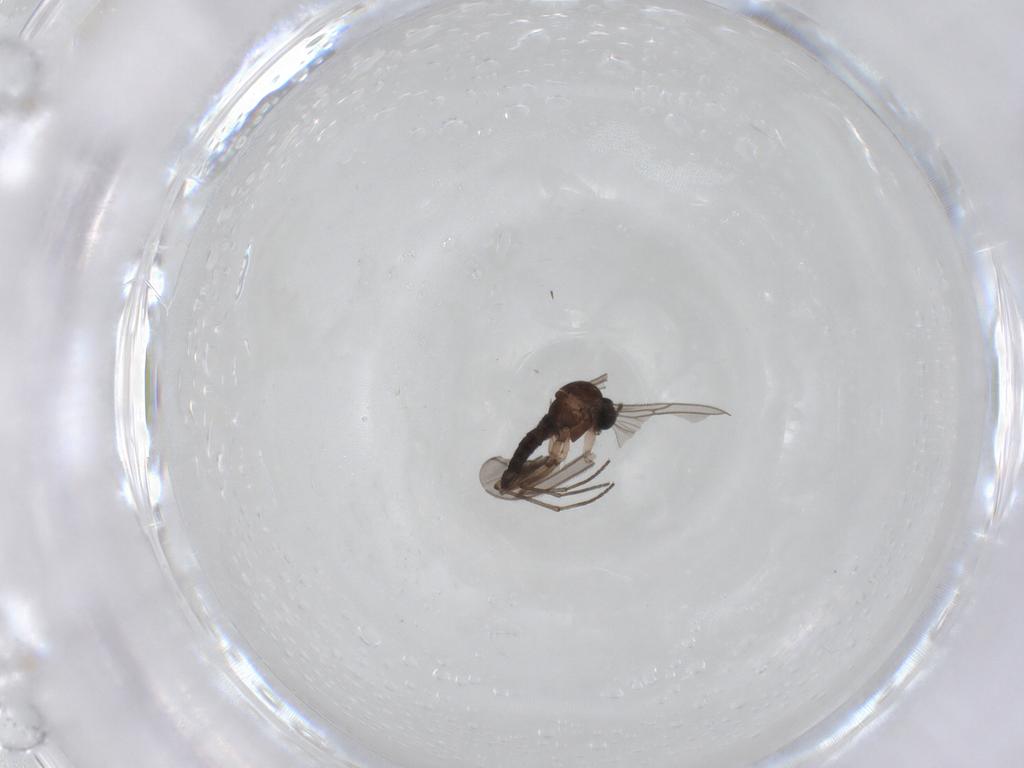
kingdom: Animalia
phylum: Arthropoda
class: Insecta
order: Diptera
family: Sciaridae
